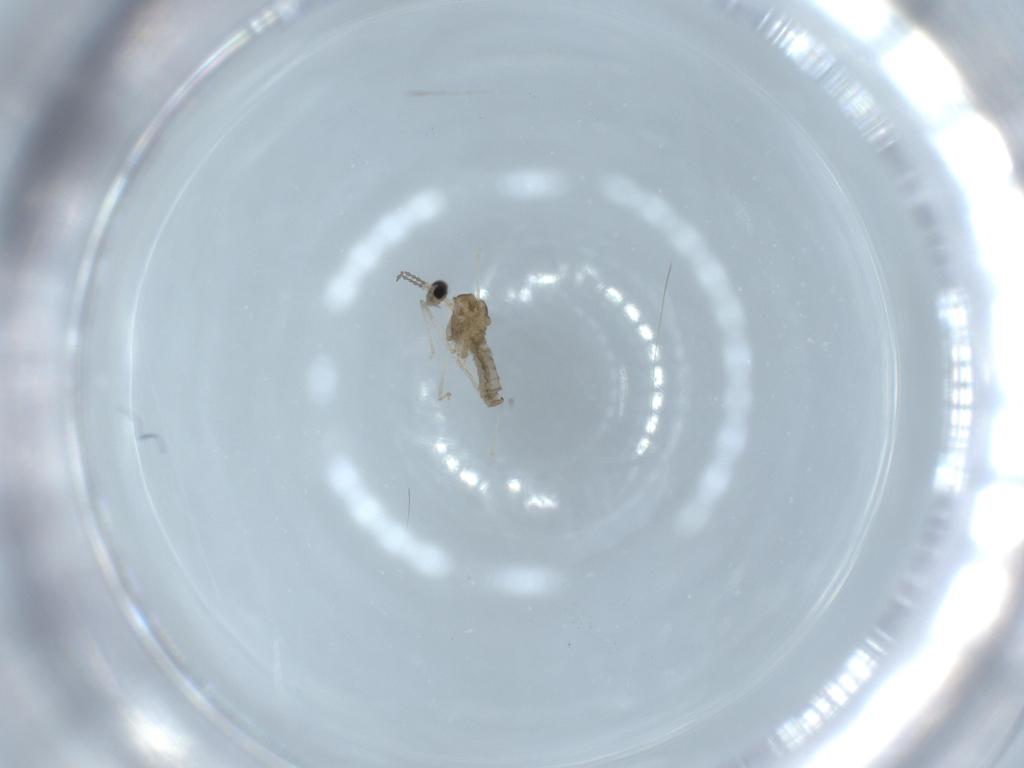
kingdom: Animalia
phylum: Arthropoda
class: Insecta
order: Diptera
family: Cecidomyiidae
